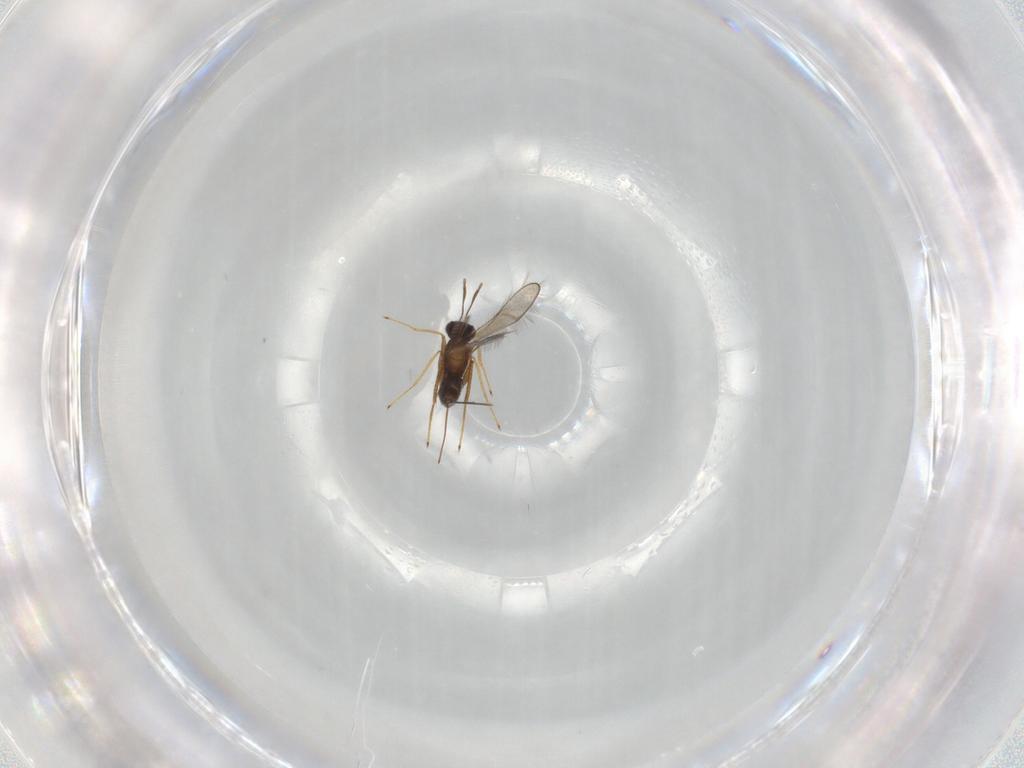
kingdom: Animalia
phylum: Arthropoda
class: Insecta
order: Hymenoptera
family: Mymaridae
